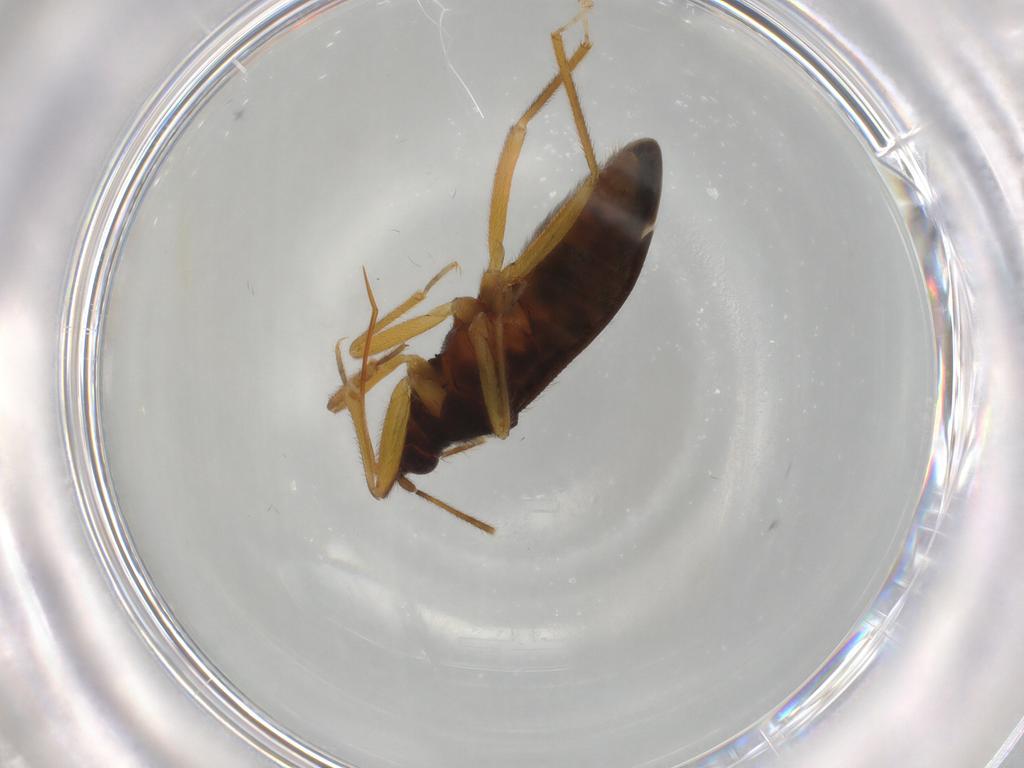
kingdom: Animalia
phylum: Arthropoda
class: Insecta
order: Hemiptera
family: Anthocoridae
